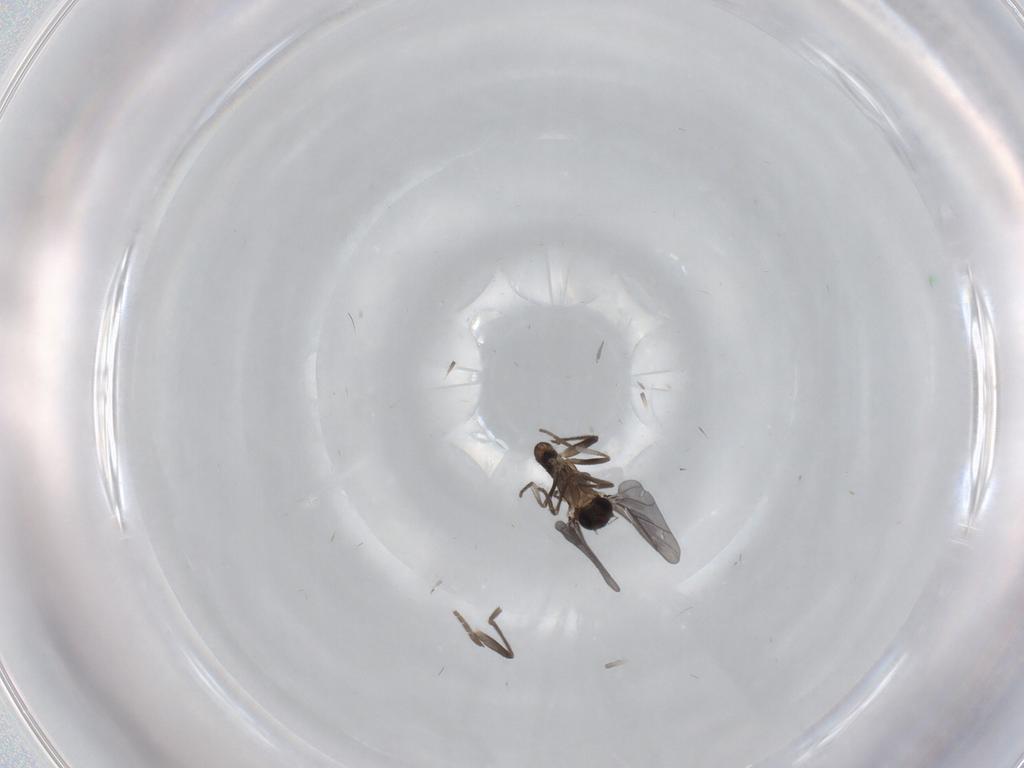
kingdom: Animalia
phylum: Arthropoda
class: Insecta
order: Diptera
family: Phoridae
